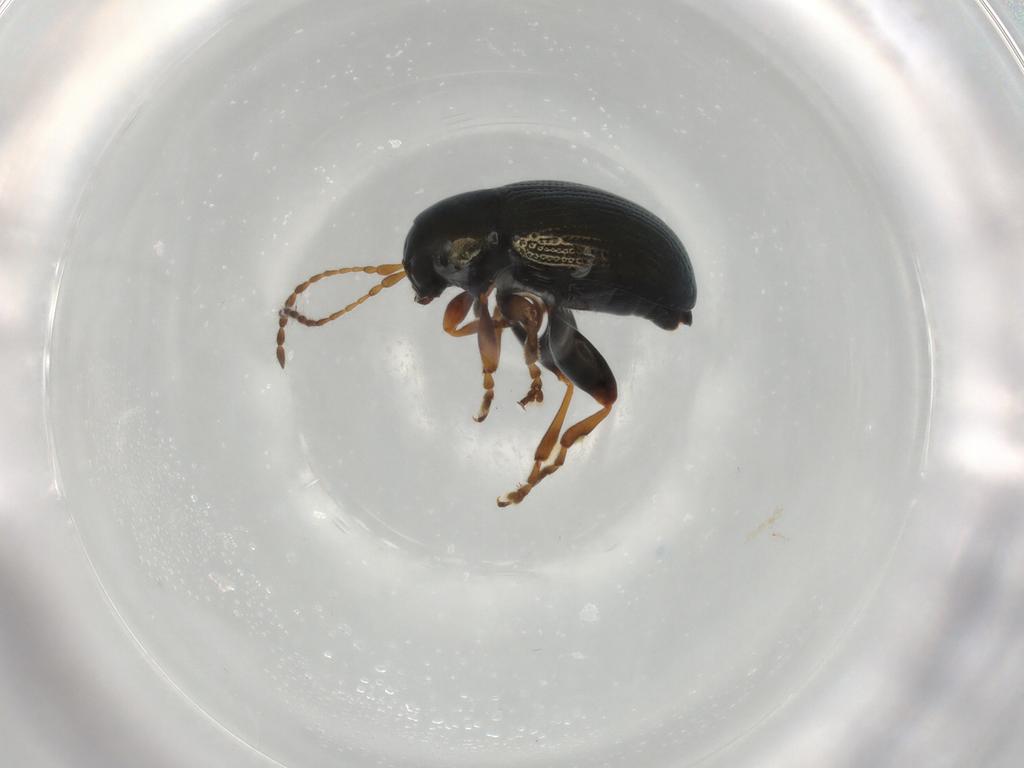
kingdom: Animalia
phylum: Arthropoda
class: Insecta
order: Coleoptera
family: Chrysomelidae
